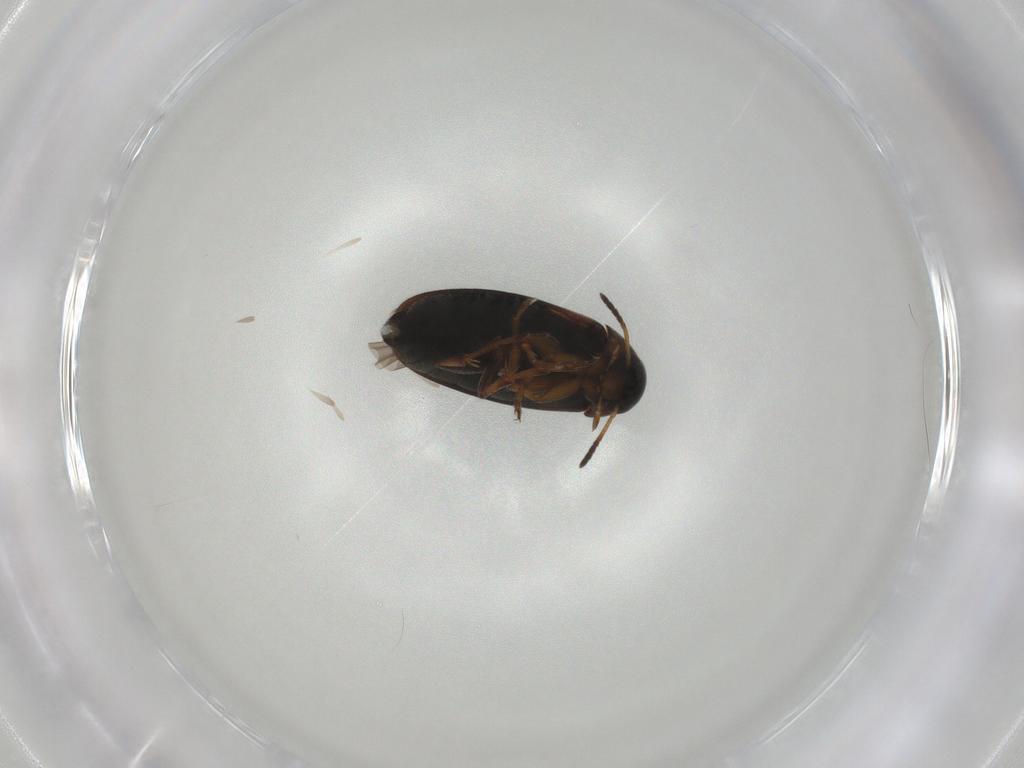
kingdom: Animalia
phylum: Arthropoda
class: Insecta
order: Coleoptera
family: Scraptiidae
